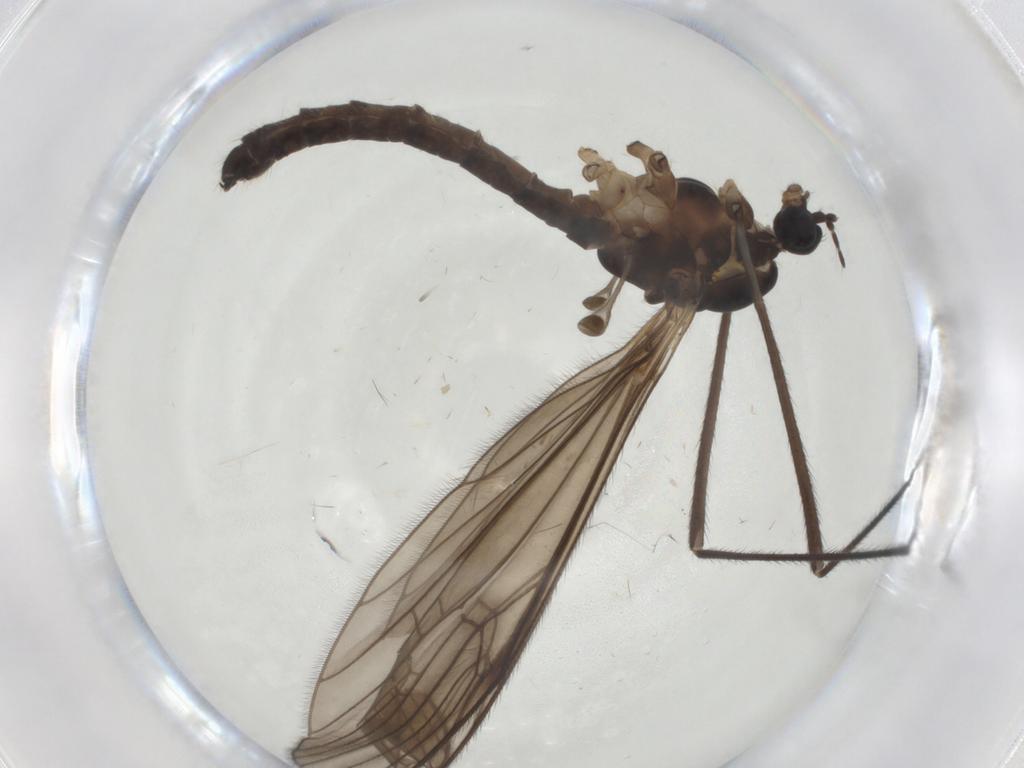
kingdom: Animalia
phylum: Arthropoda
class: Insecta
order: Diptera
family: Limoniidae
